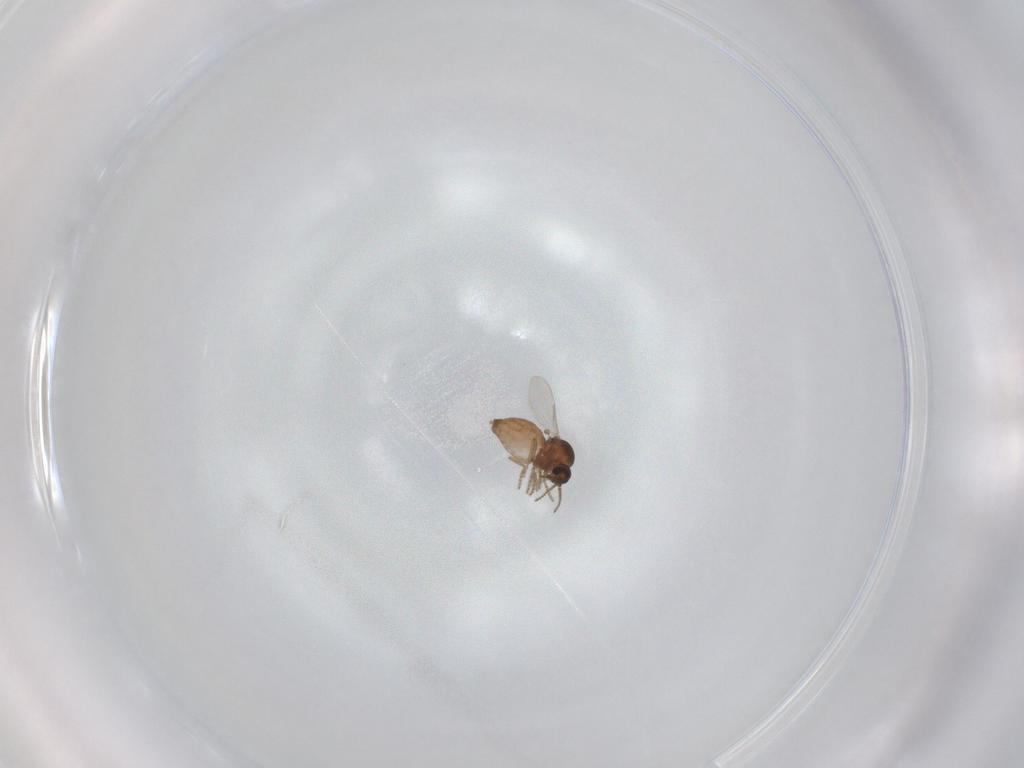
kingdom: Animalia
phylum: Arthropoda
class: Insecta
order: Diptera
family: Ceratopogonidae
